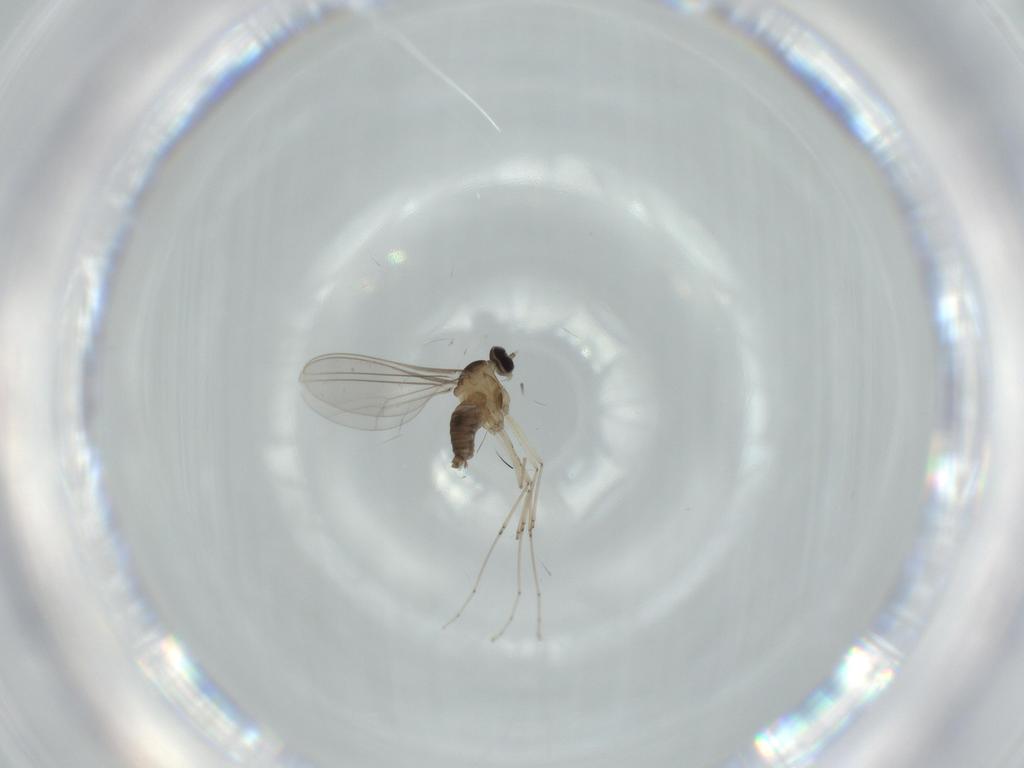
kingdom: Animalia
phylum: Arthropoda
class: Insecta
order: Diptera
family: Cecidomyiidae
